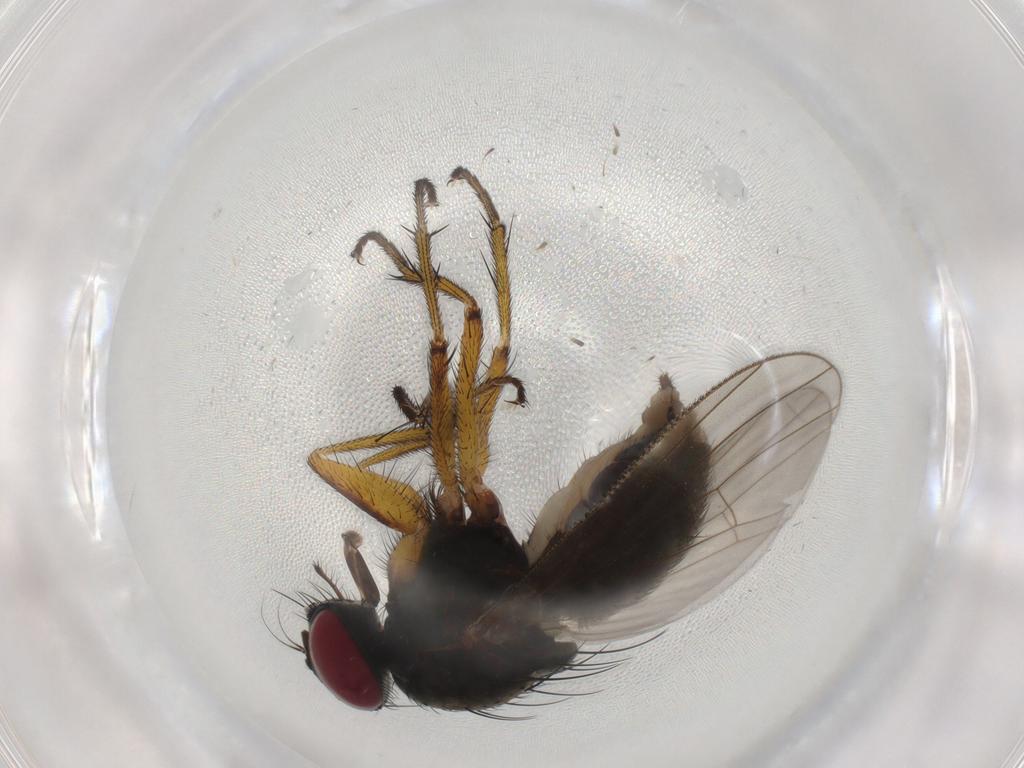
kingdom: Animalia
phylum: Arthropoda
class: Insecta
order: Diptera
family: Muscidae
